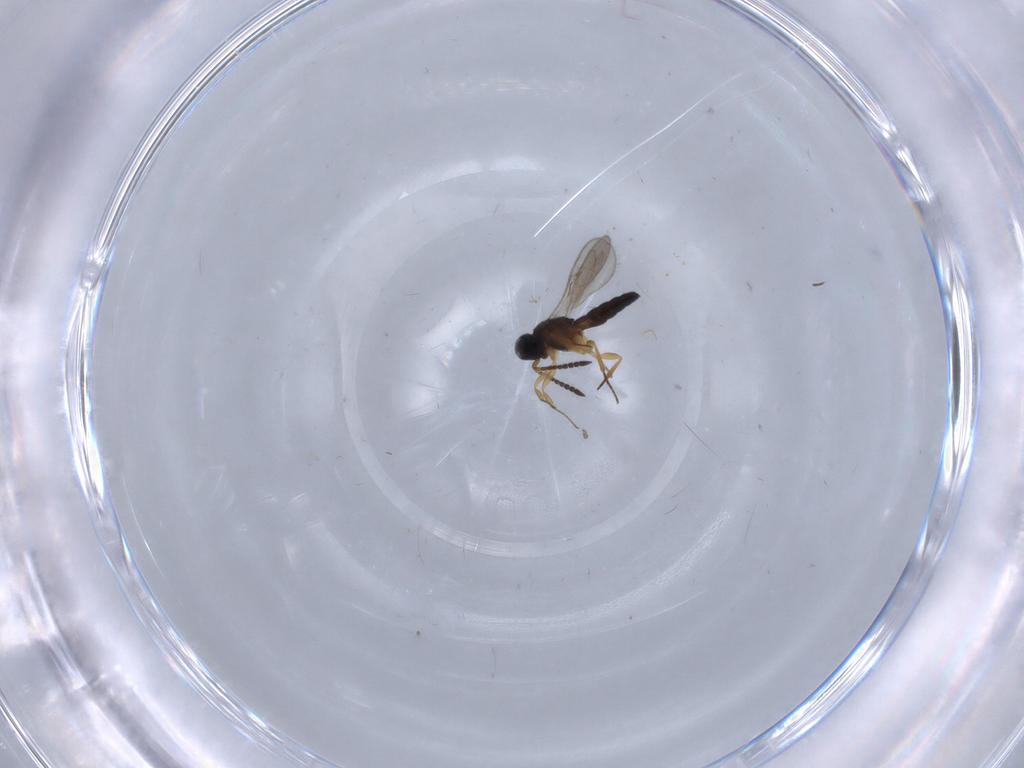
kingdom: Animalia
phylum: Arthropoda
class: Insecta
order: Hymenoptera
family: Scelionidae
